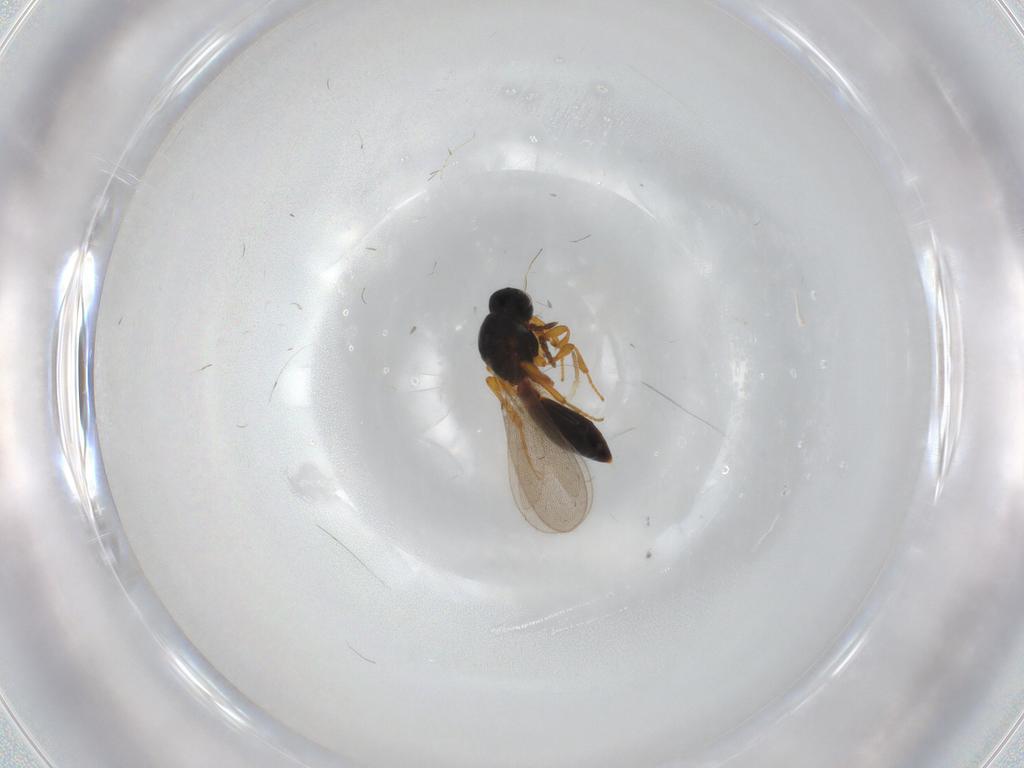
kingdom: Animalia
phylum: Arthropoda
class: Insecta
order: Hymenoptera
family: Platygastridae
